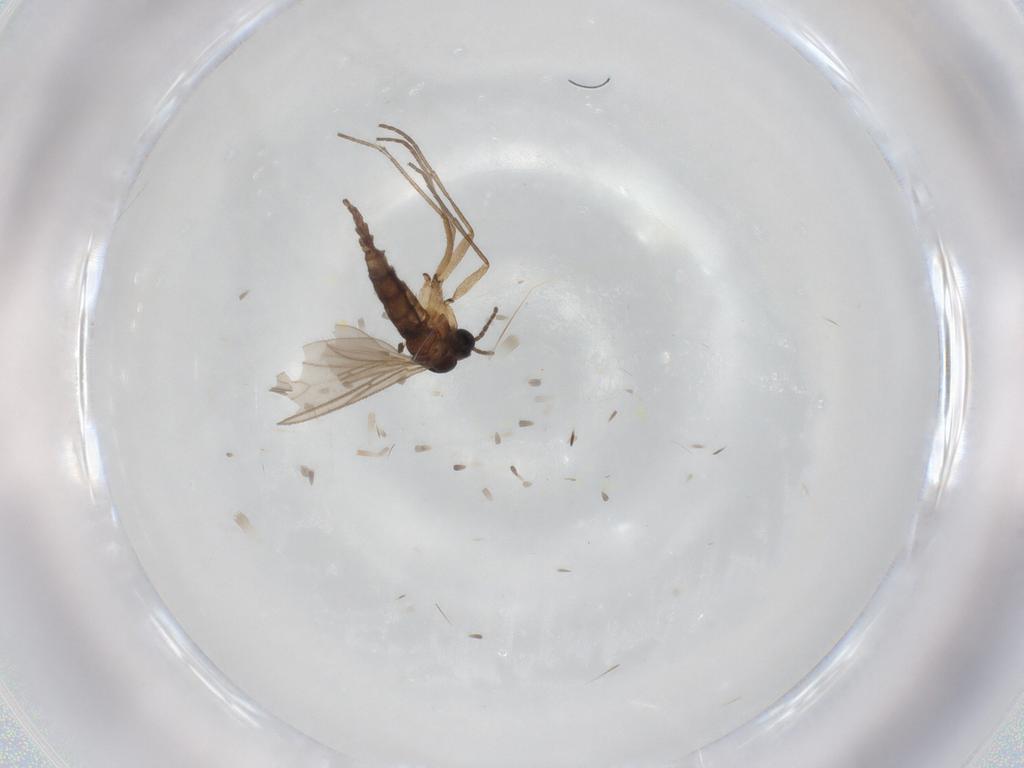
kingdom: Animalia
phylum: Arthropoda
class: Insecta
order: Diptera
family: Sciaridae
